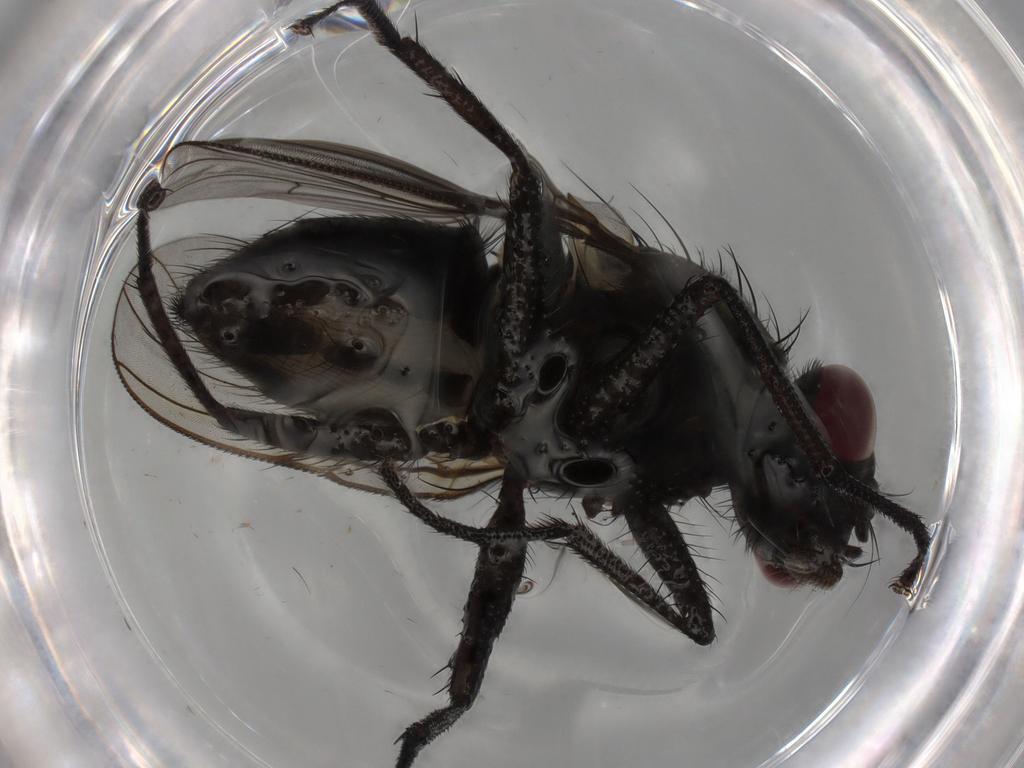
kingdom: Animalia
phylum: Arthropoda
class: Insecta
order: Diptera
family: Muscidae
